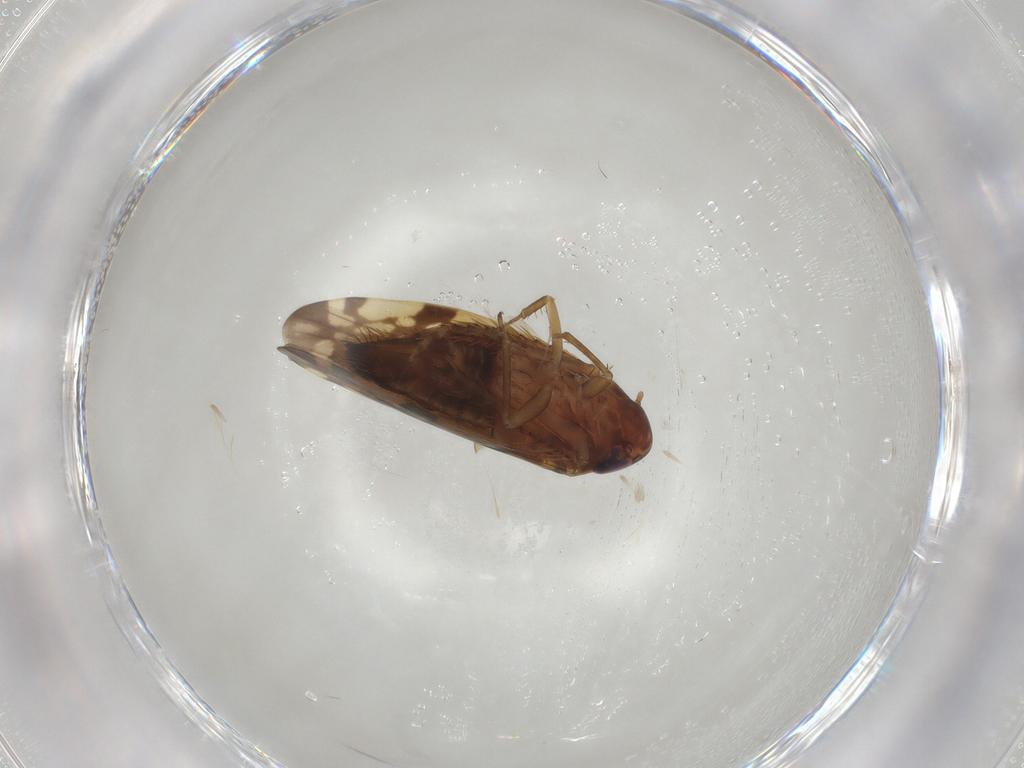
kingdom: Animalia
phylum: Arthropoda
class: Insecta
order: Hemiptera
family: Cicadellidae
